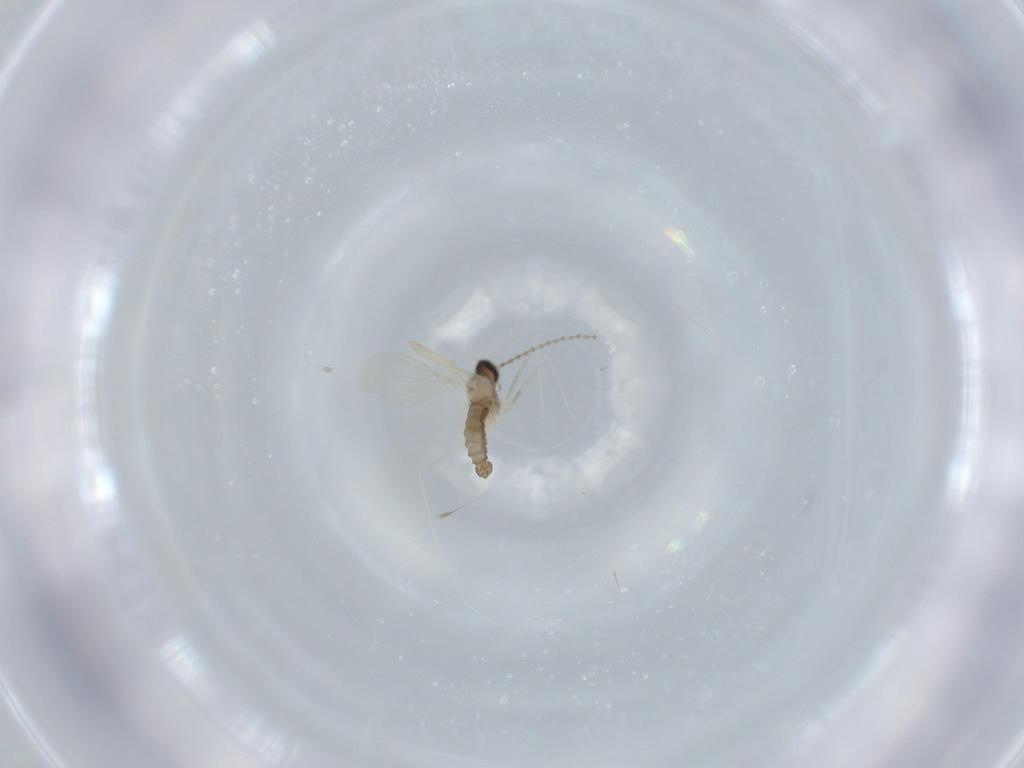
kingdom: Animalia
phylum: Arthropoda
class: Insecta
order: Diptera
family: Cecidomyiidae
